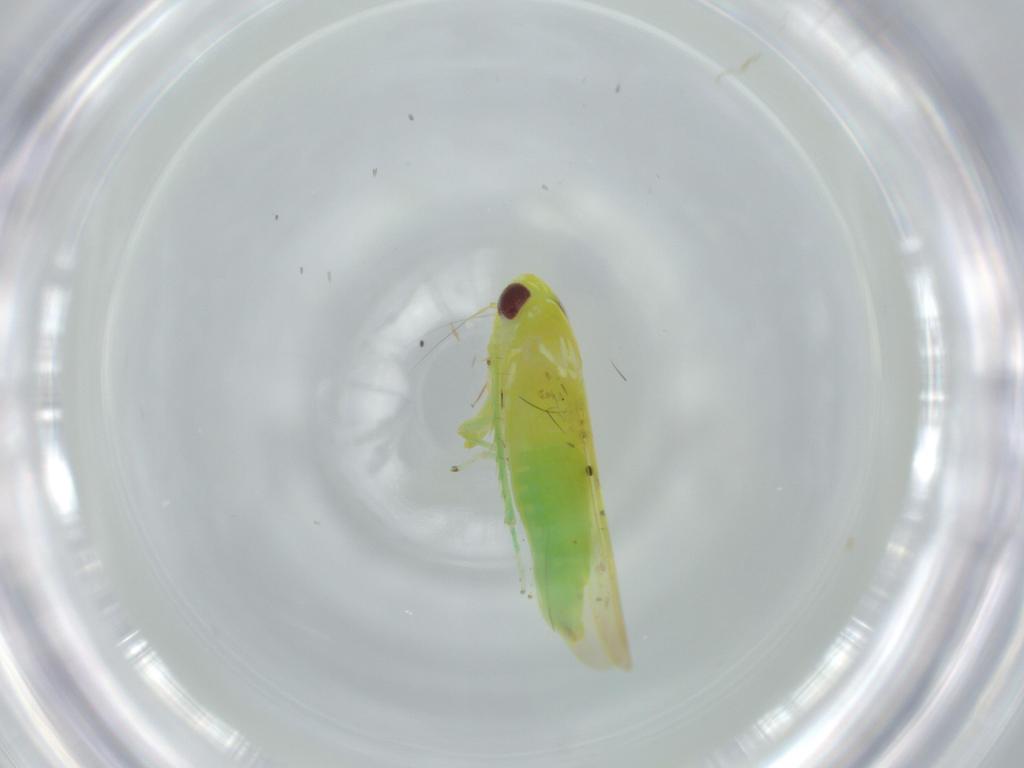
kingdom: Animalia
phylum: Arthropoda
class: Insecta
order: Hemiptera
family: Cicadellidae
